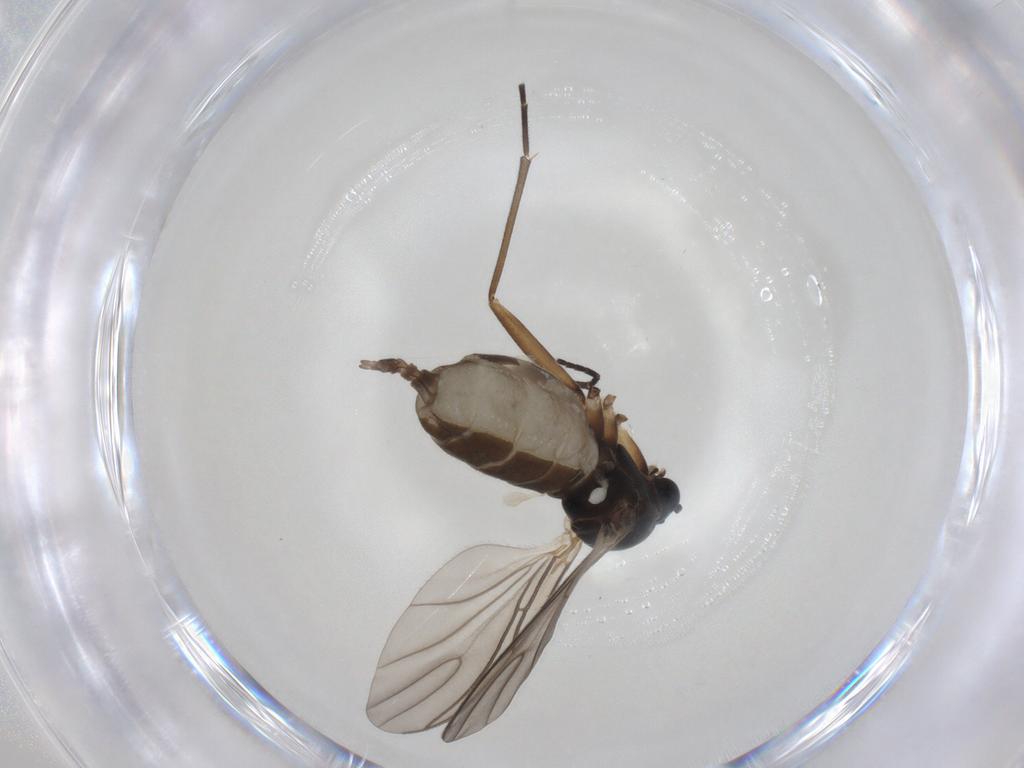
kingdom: Animalia
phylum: Arthropoda
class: Insecta
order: Diptera
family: Sciaridae
